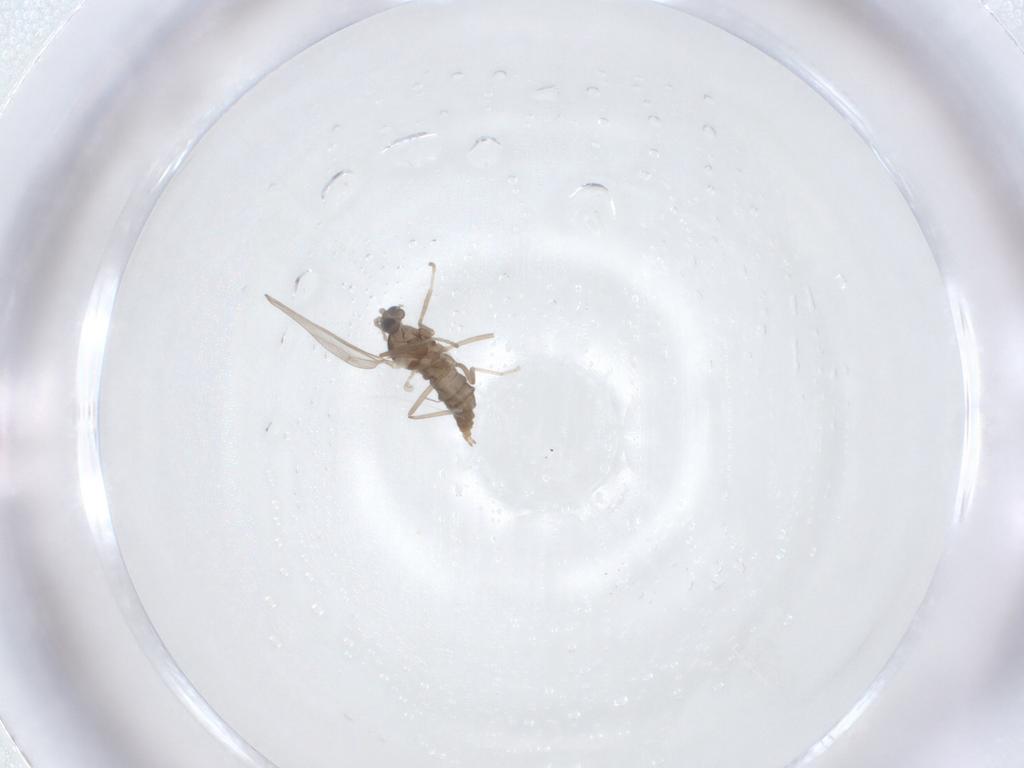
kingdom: Animalia
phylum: Arthropoda
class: Insecta
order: Diptera
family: Cecidomyiidae
